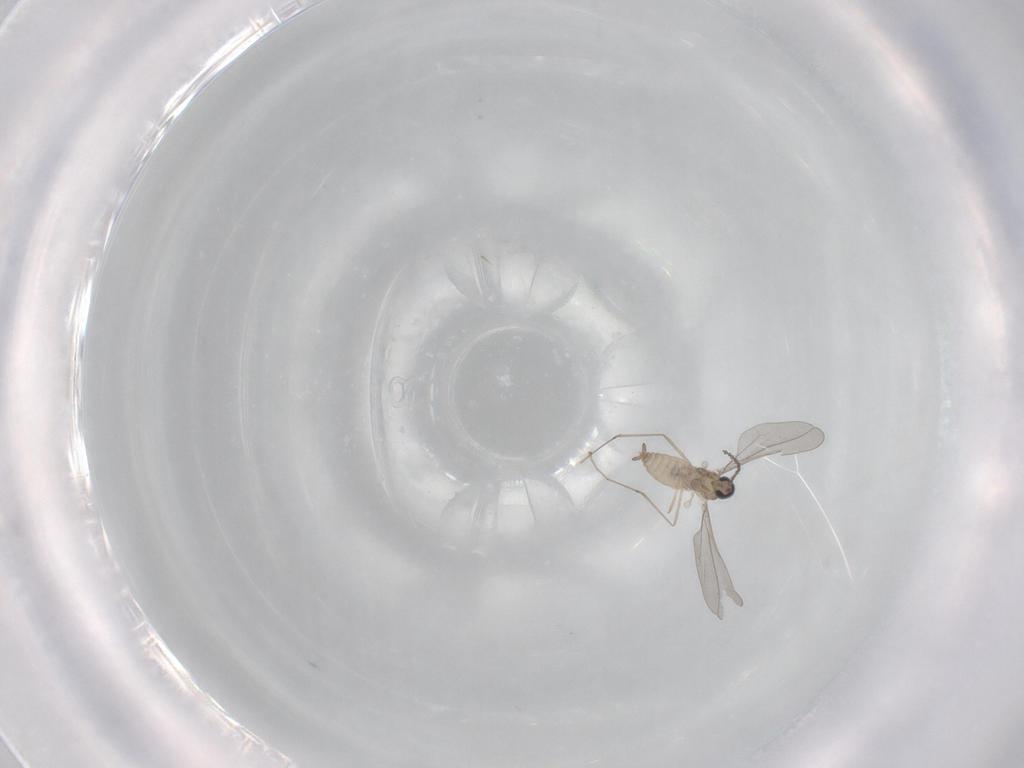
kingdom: Animalia
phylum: Arthropoda
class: Insecta
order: Diptera
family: Cecidomyiidae
